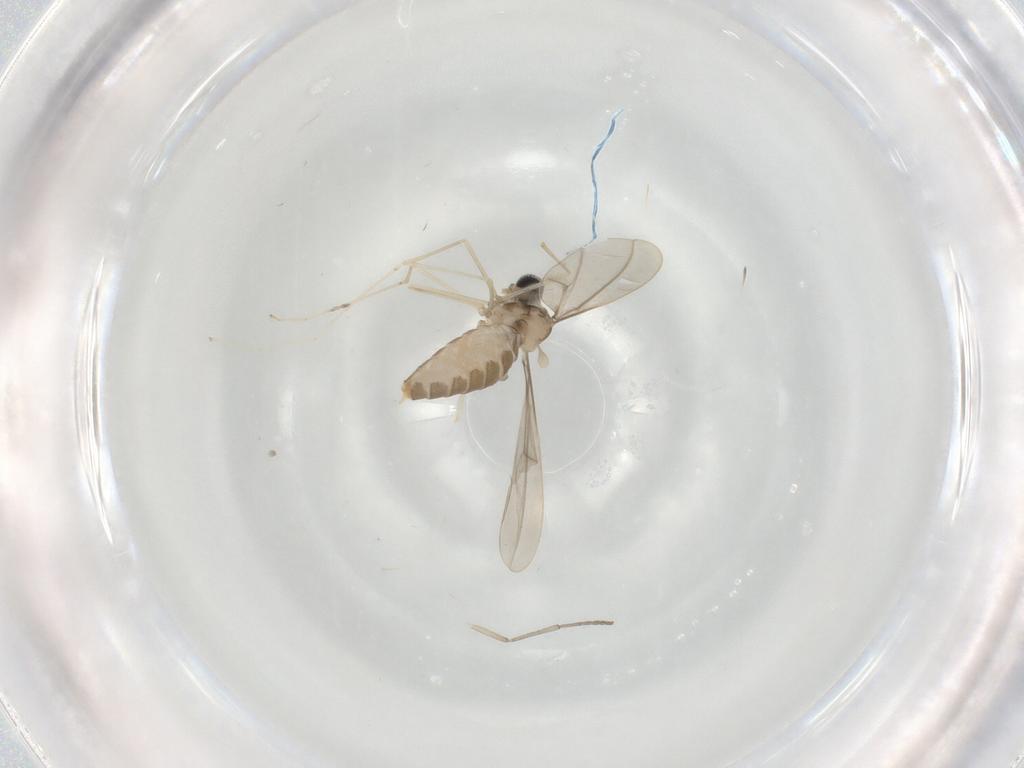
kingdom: Animalia
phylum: Arthropoda
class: Insecta
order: Diptera
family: Cecidomyiidae
